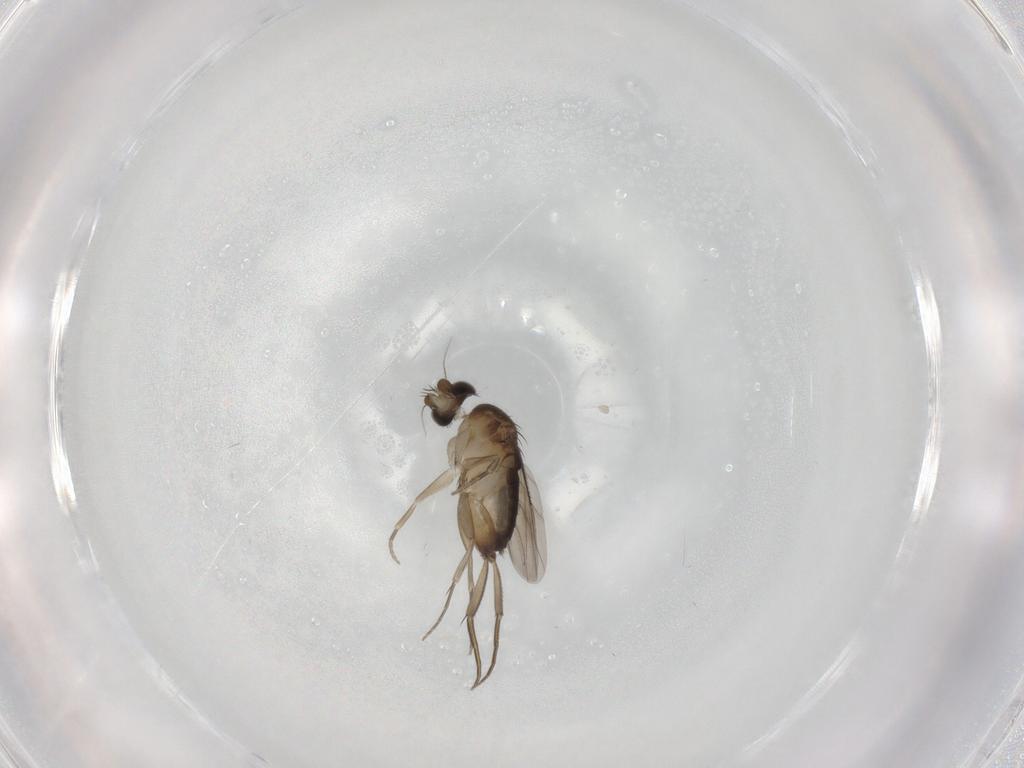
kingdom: Animalia
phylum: Arthropoda
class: Insecta
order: Diptera
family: Phoridae
